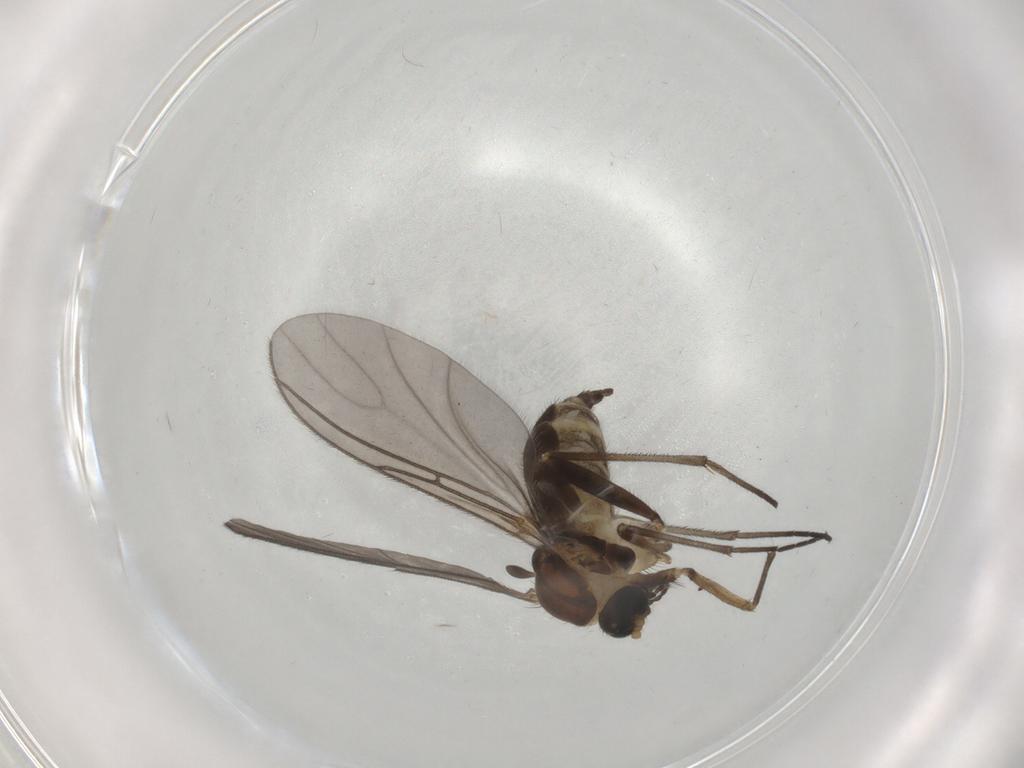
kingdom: Animalia
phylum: Arthropoda
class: Insecta
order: Diptera
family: Sciaridae
